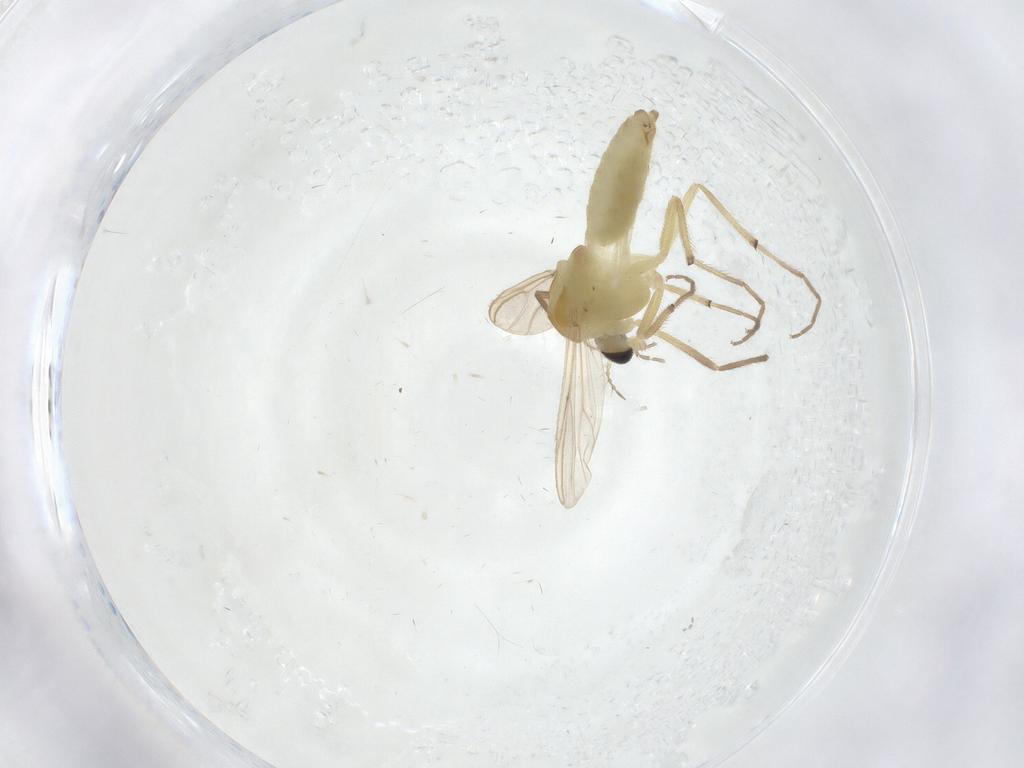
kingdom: Animalia
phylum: Arthropoda
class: Insecta
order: Diptera
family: Chironomidae
